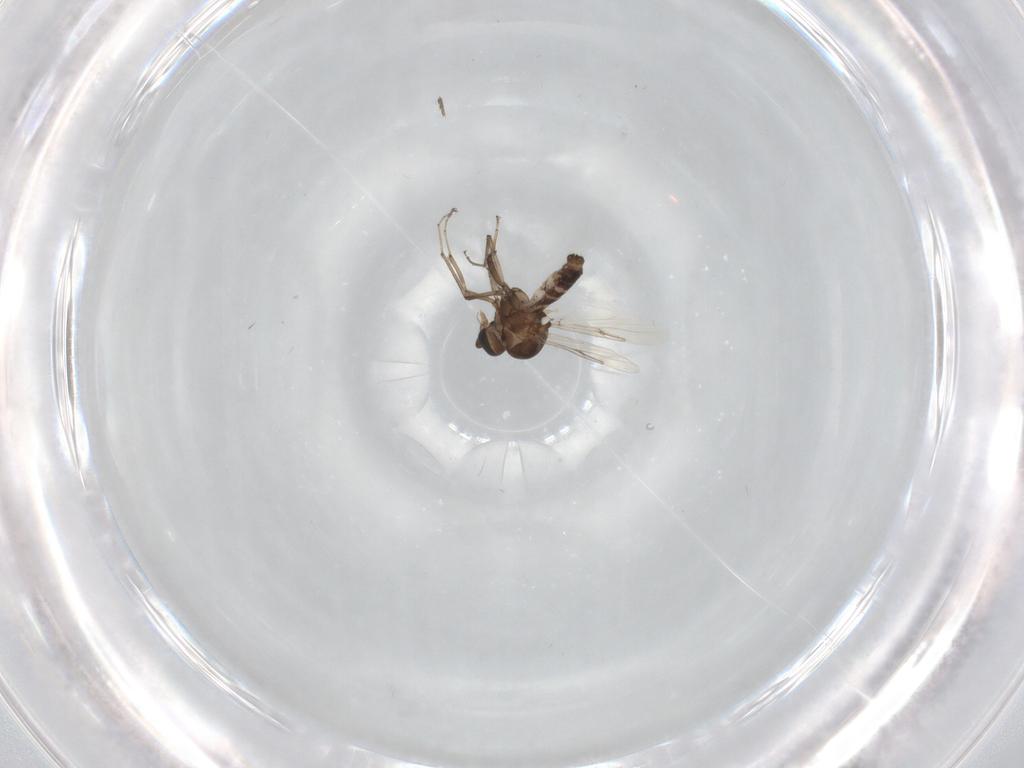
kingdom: Animalia
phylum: Arthropoda
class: Insecta
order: Diptera
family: Ceratopogonidae
